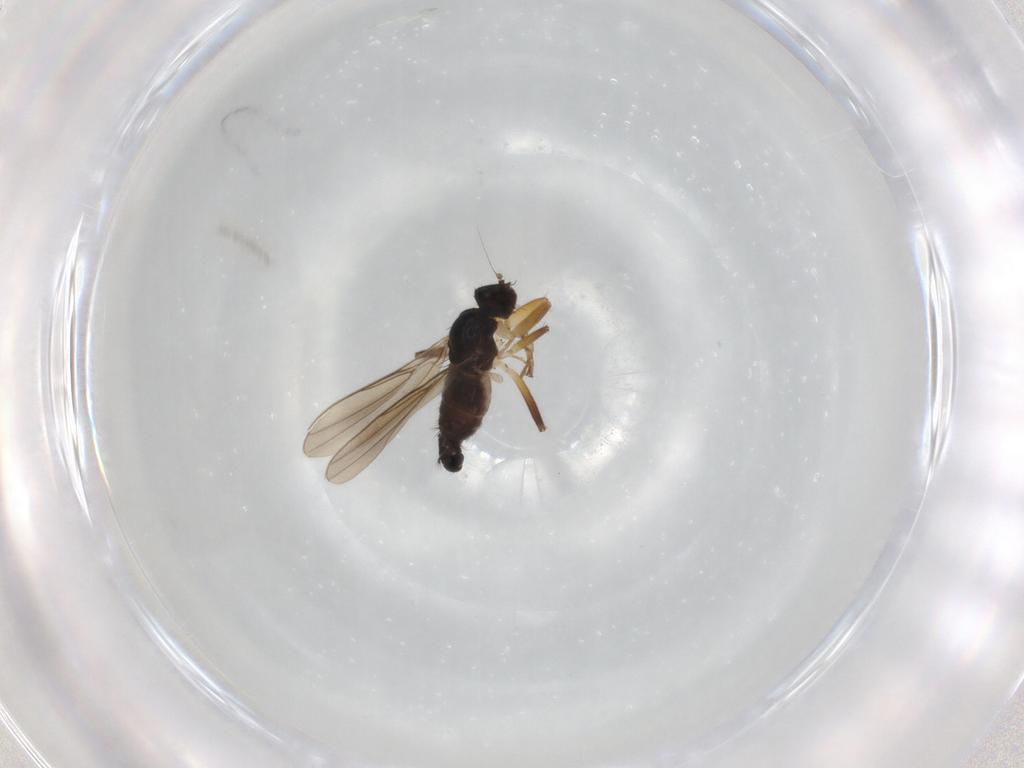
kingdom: Animalia
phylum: Arthropoda
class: Insecta
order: Diptera
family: Hybotidae
